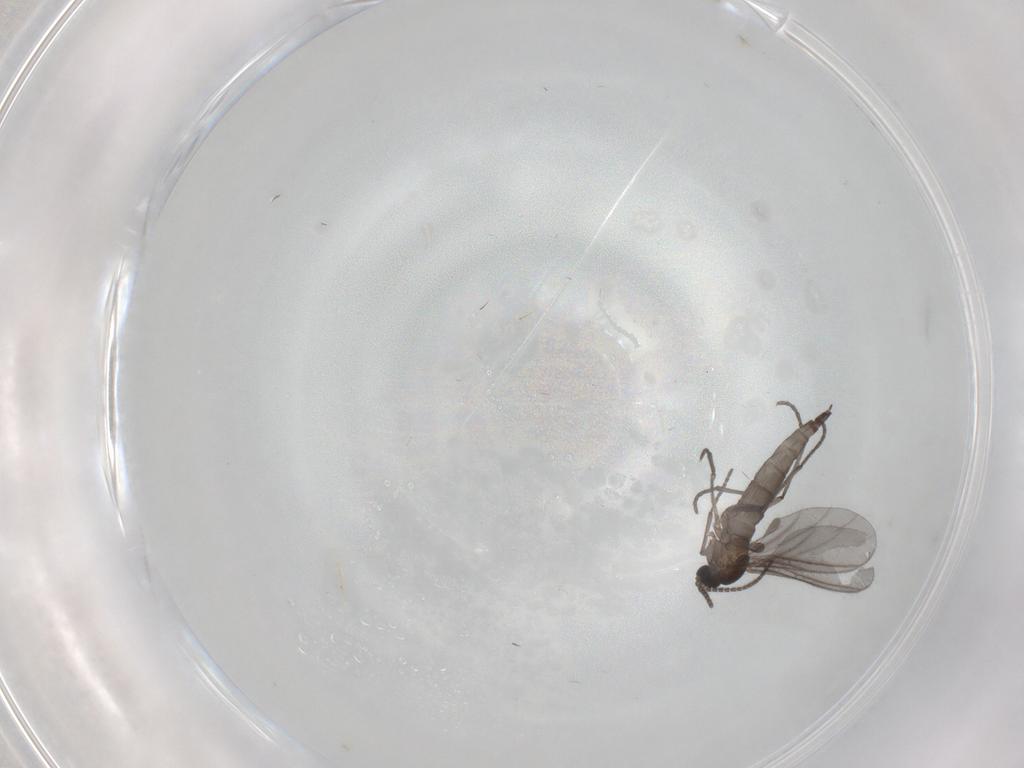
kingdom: Animalia
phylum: Arthropoda
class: Insecta
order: Diptera
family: Sciaridae
